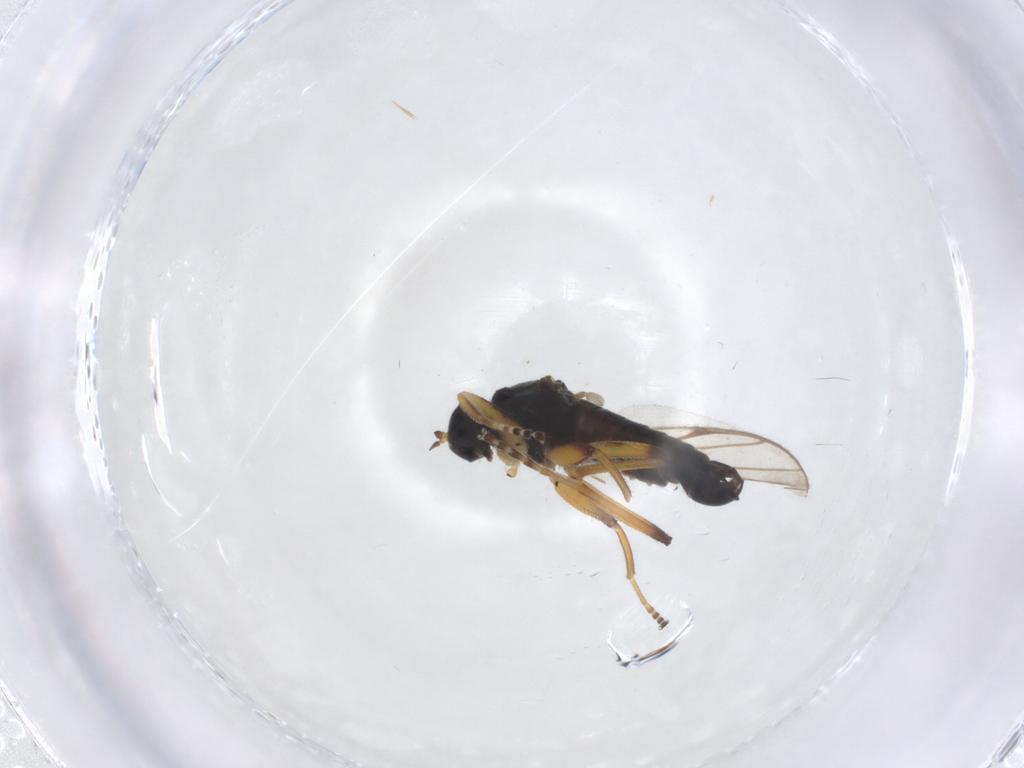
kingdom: Animalia
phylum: Arthropoda
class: Insecta
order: Diptera
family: Hybotidae
